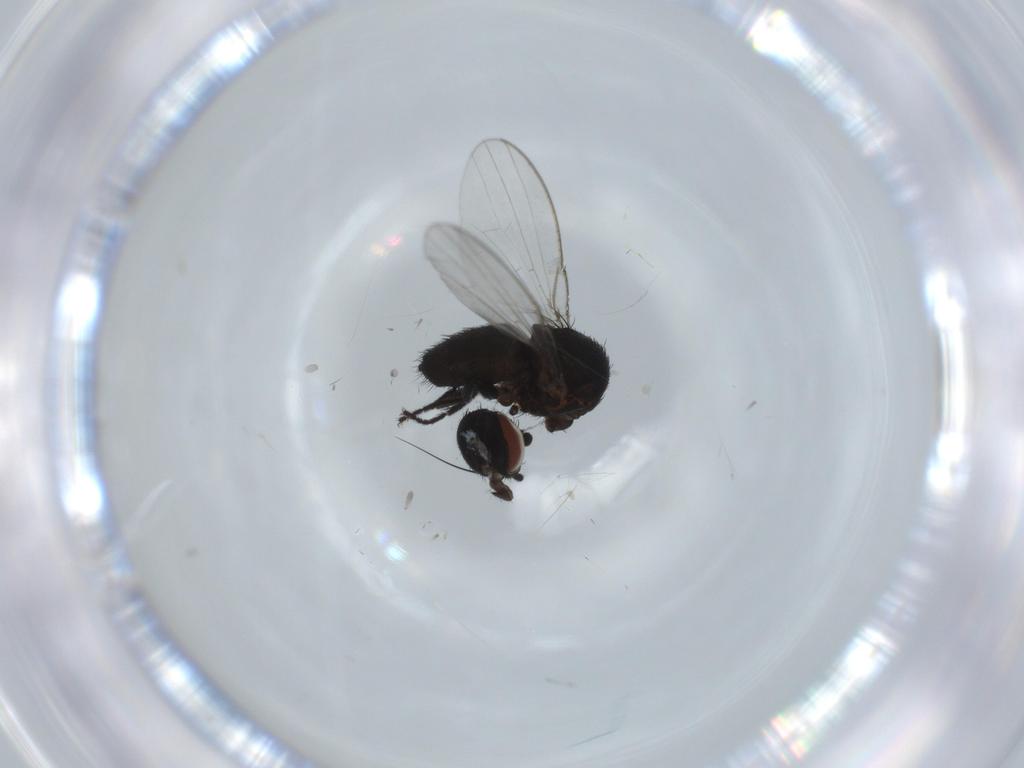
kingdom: Animalia
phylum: Arthropoda
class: Insecta
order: Diptera
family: Milichiidae
